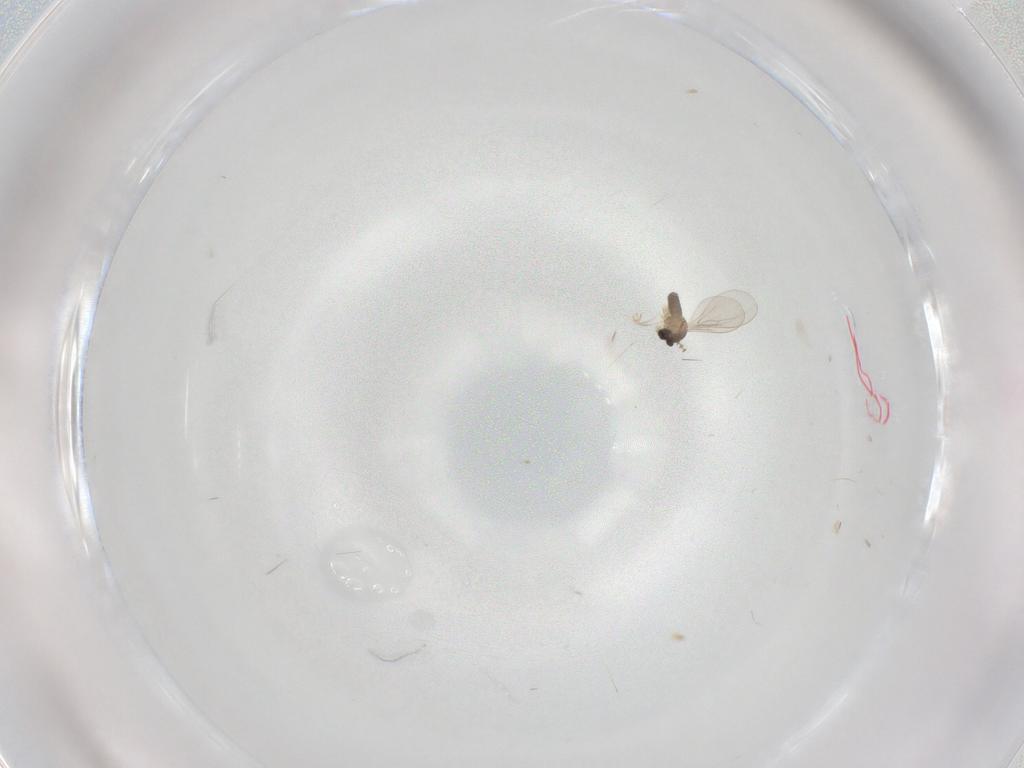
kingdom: Animalia
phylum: Arthropoda
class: Insecta
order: Diptera
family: Cecidomyiidae
